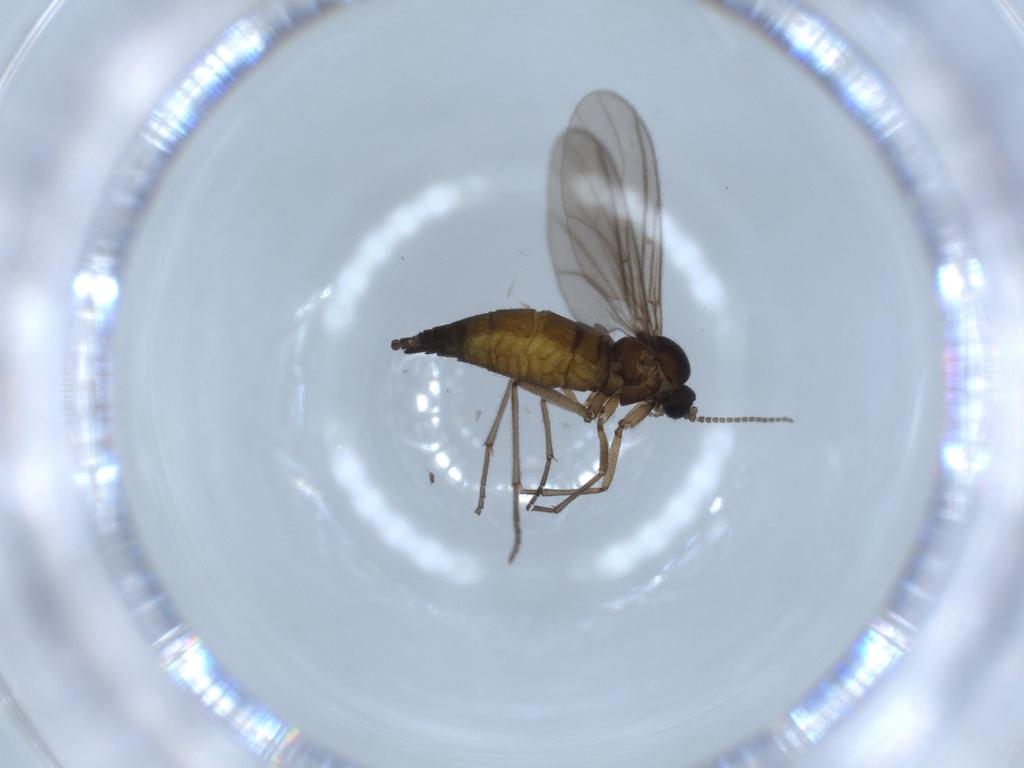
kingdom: Animalia
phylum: Arthropoda
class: Insecta
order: Diptera
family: Sciaridae
